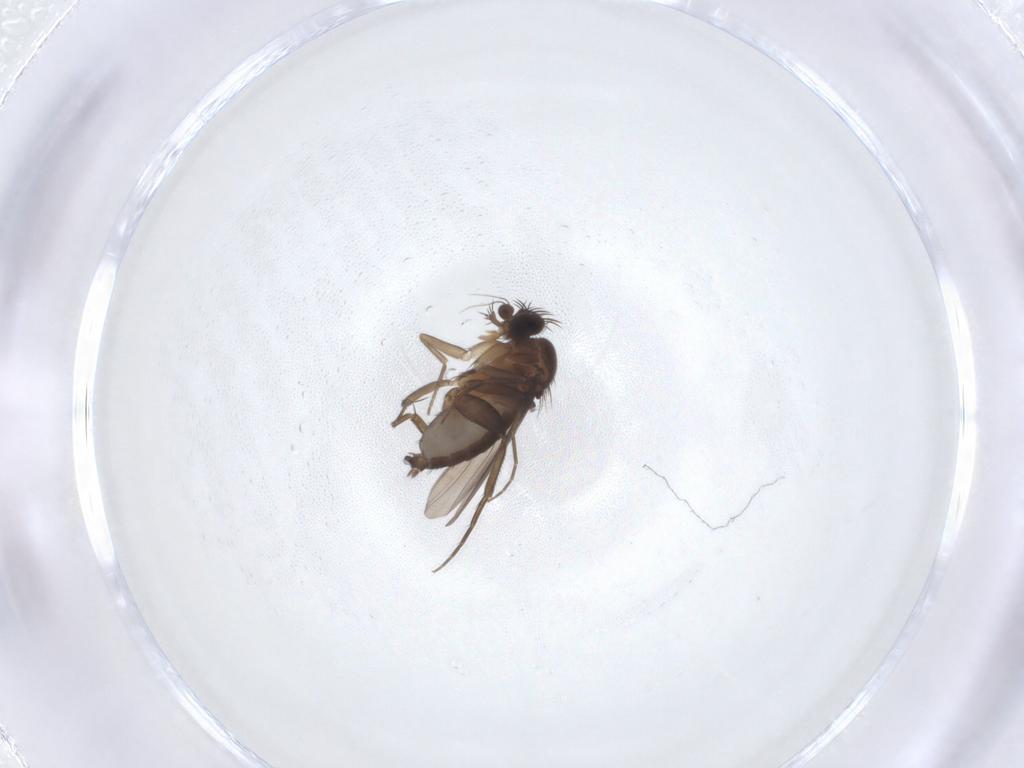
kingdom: Animalia
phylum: Arthropoda
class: Insecta
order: Diptera
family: Phoridae
